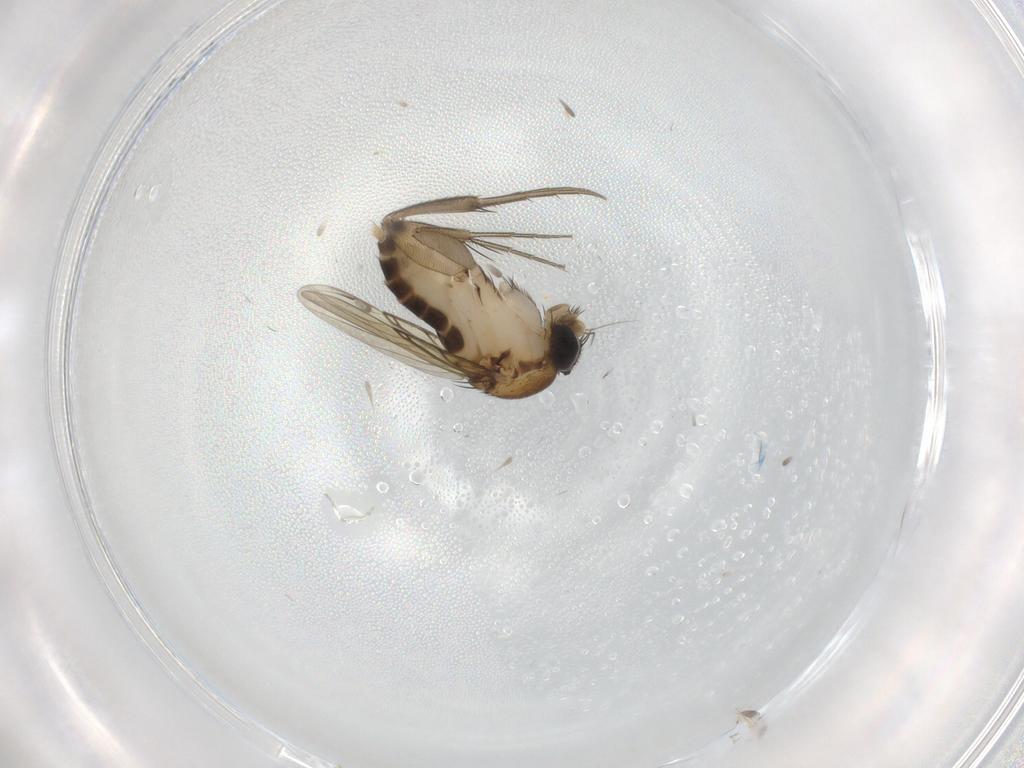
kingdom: Animalia
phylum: Arthropoda
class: Insecta
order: Diptera
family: Phoridae
